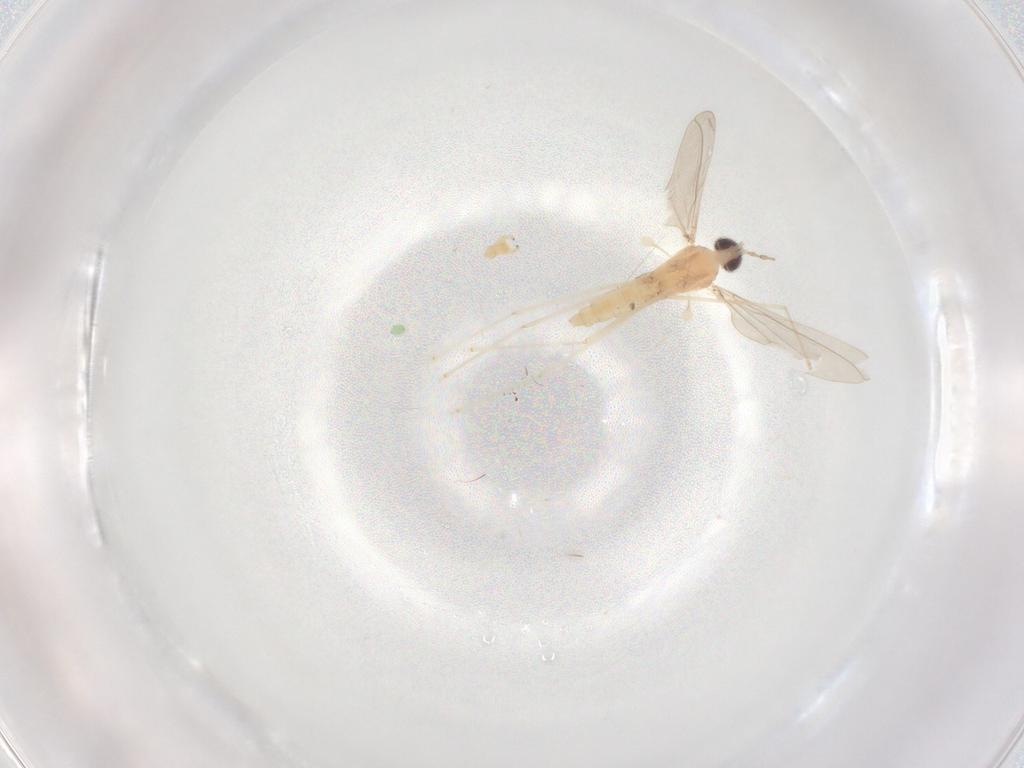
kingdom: Animalia
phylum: Arthropoda
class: Insecta
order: Diptera
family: Cecidomyiidae
